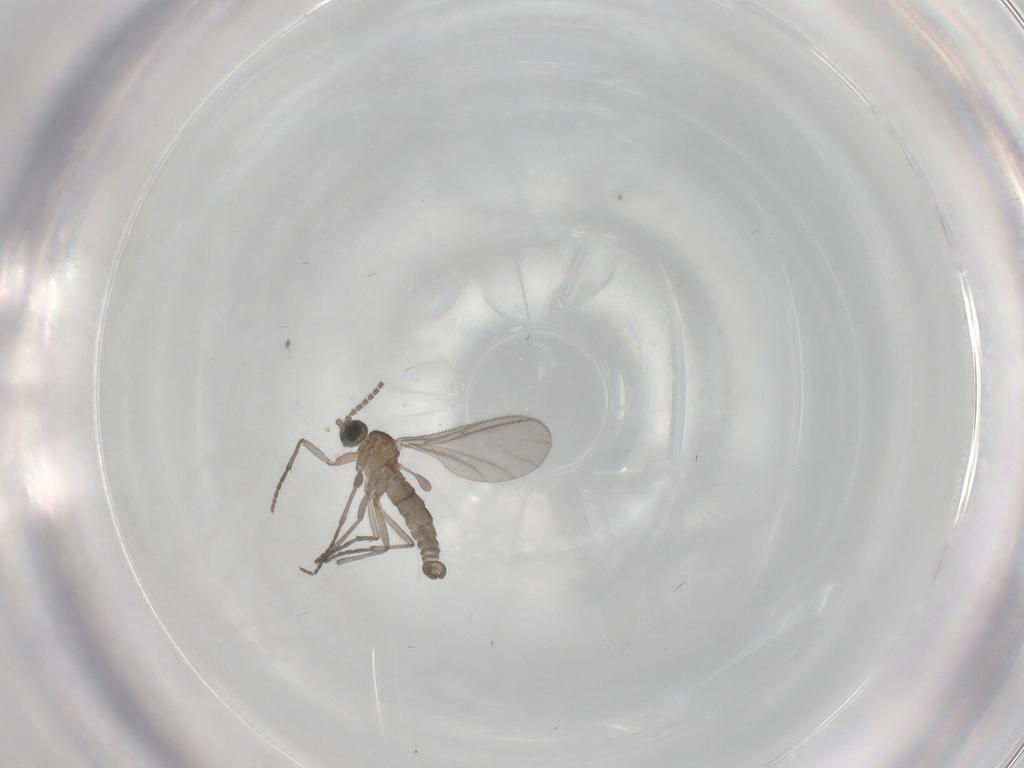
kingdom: Animalia
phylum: Arthropoda
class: Insecta
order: Diptera
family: Sciaridae
